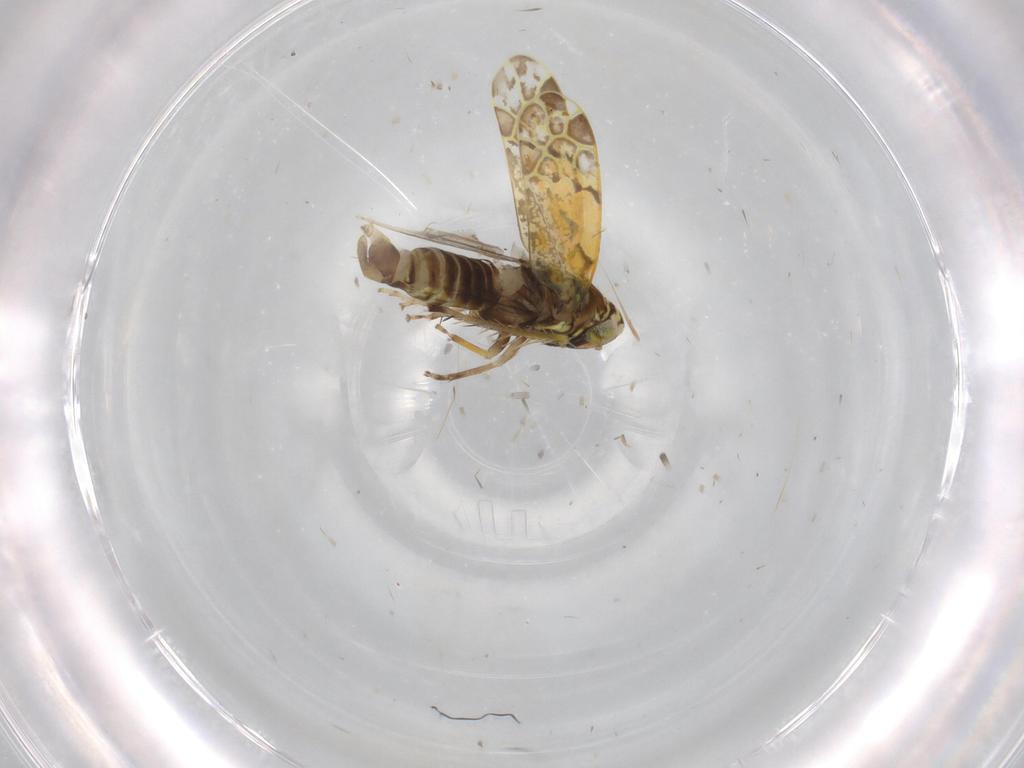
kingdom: Animalia
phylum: Arthropoda
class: Insecta
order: Hemiptera
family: Cicadellidae
